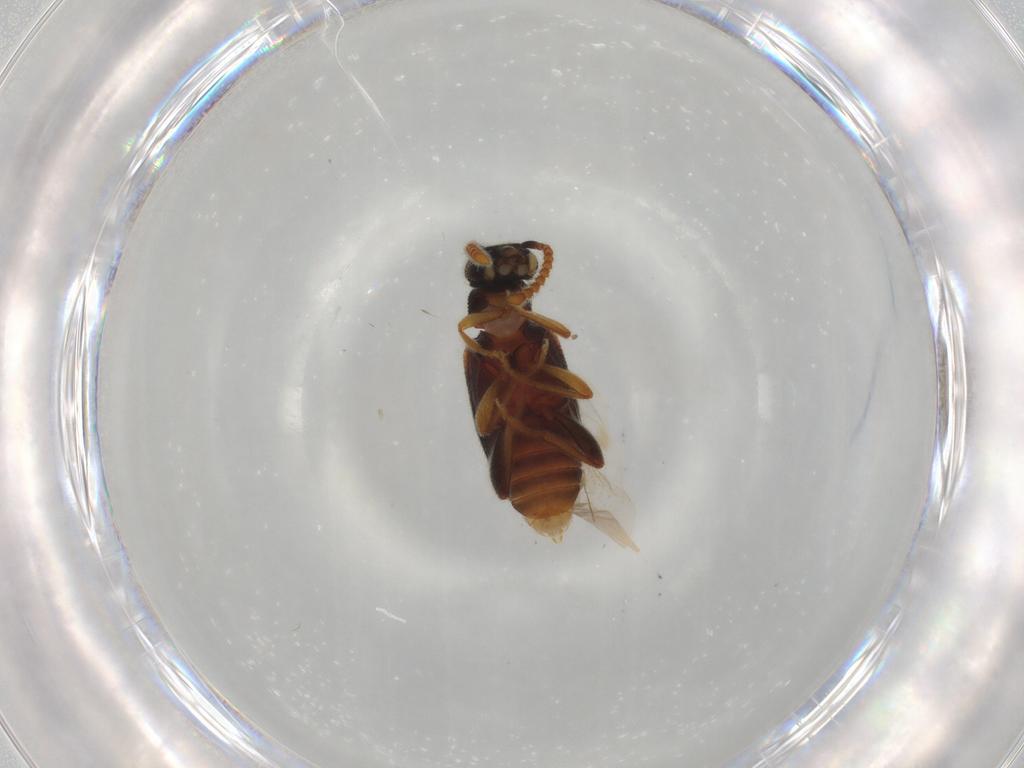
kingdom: Animalia
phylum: Arthropoda
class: Insecta
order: Coleoptera
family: Aderidae
